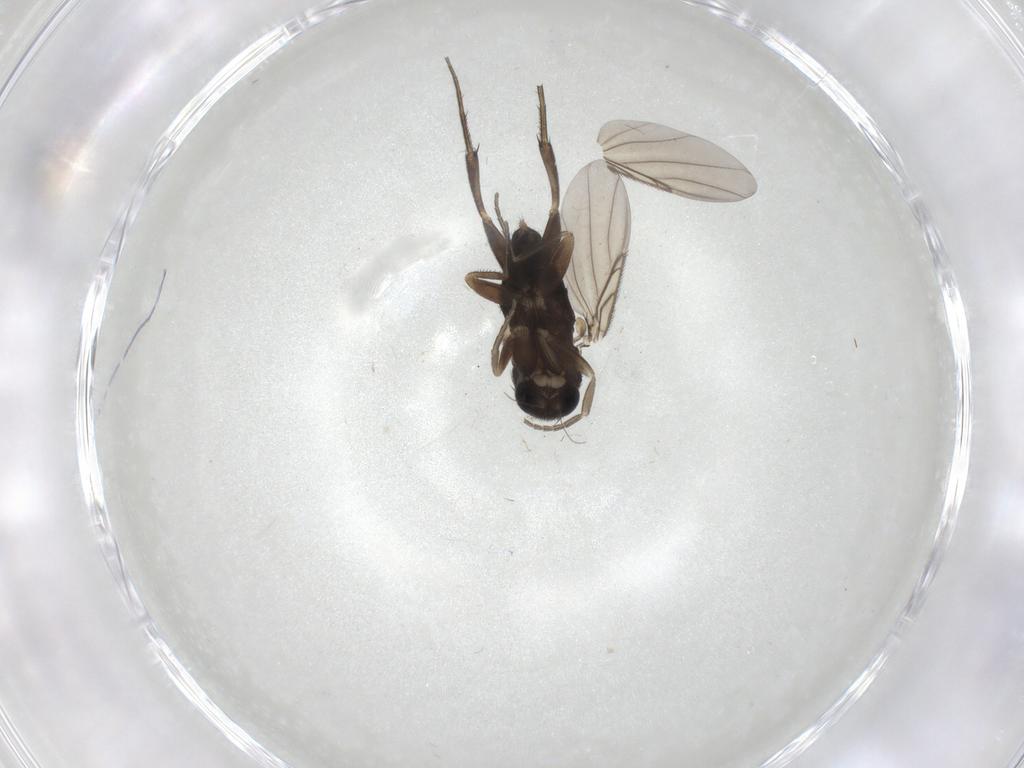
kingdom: Animalia
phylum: Arthropoda
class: Insecta
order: Diptera
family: Phoridae
